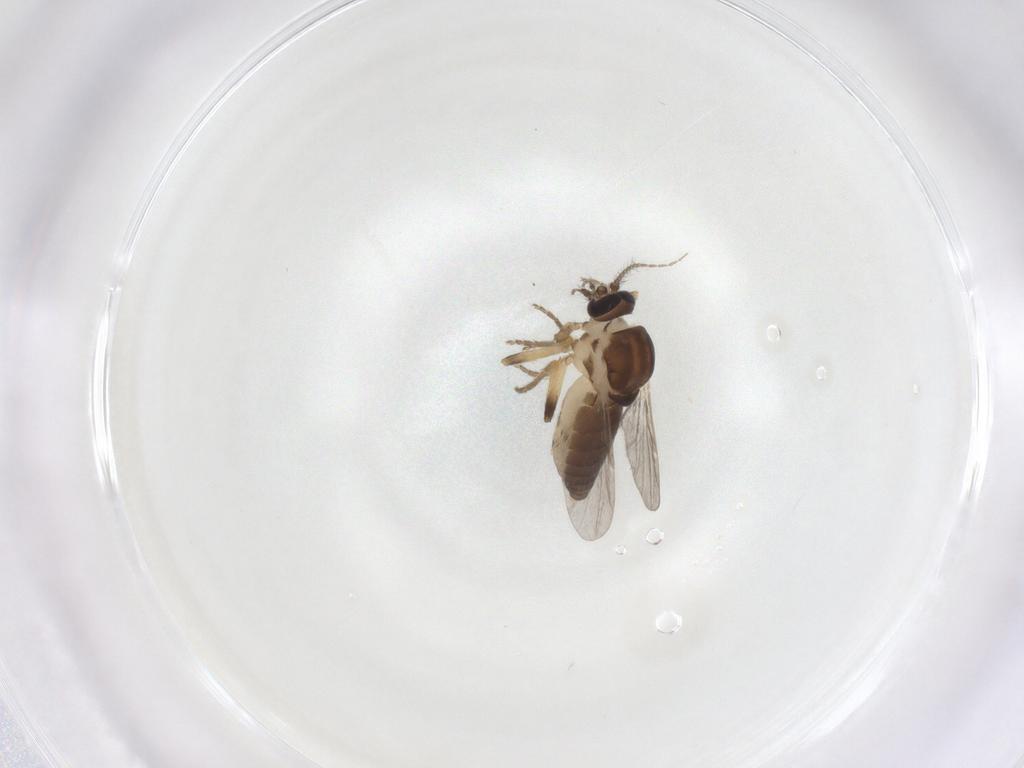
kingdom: Animalia
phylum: Arthropoda
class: Insecta
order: Diptera
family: Ceratopogonidae
